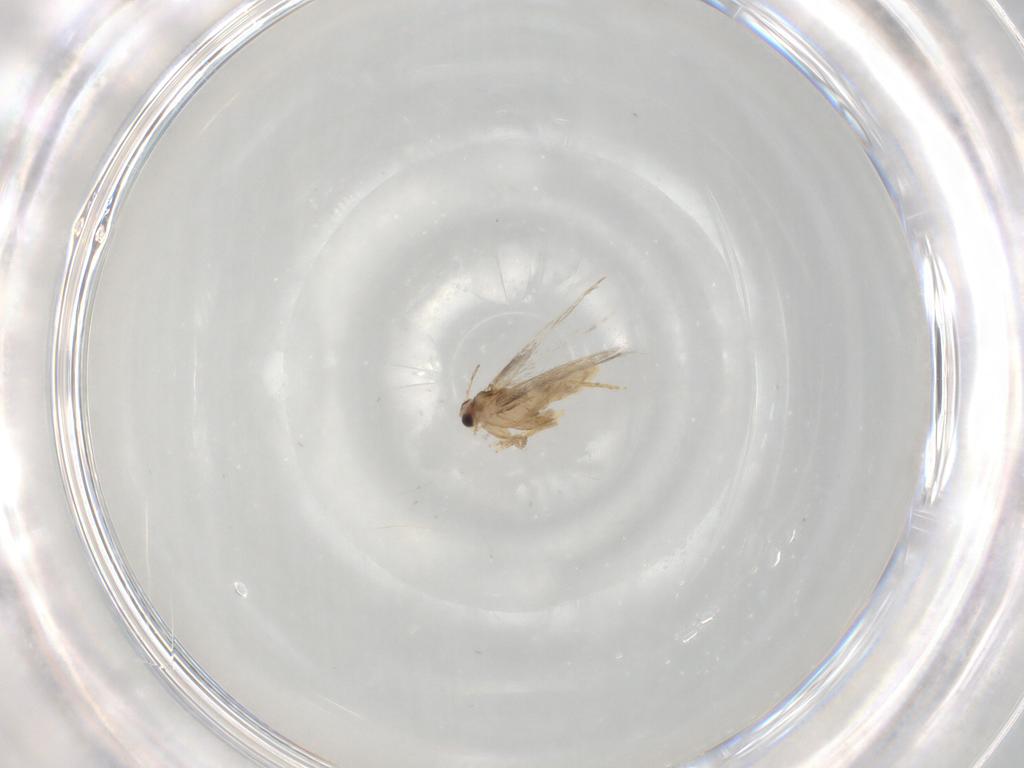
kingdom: Animalia
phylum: Arthropoda
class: Insecta
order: Lepidoptera
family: Nepticulidae
